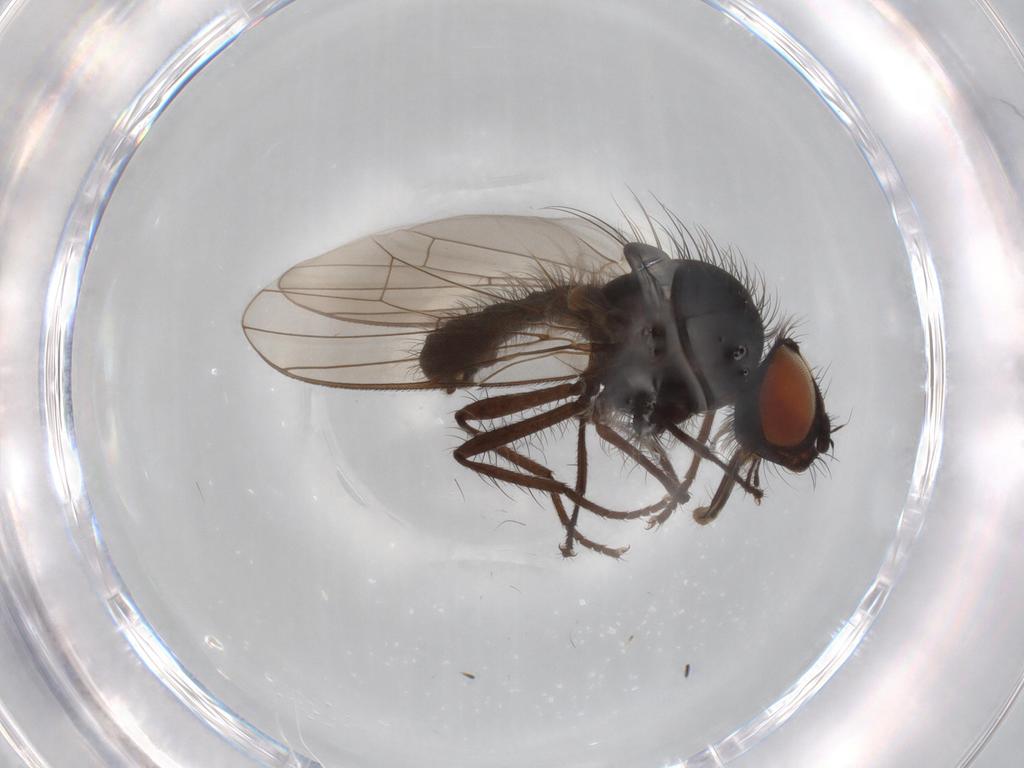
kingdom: Animalia
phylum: Arthropoda
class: Insecta
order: Diptera
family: Anthomyiidae
